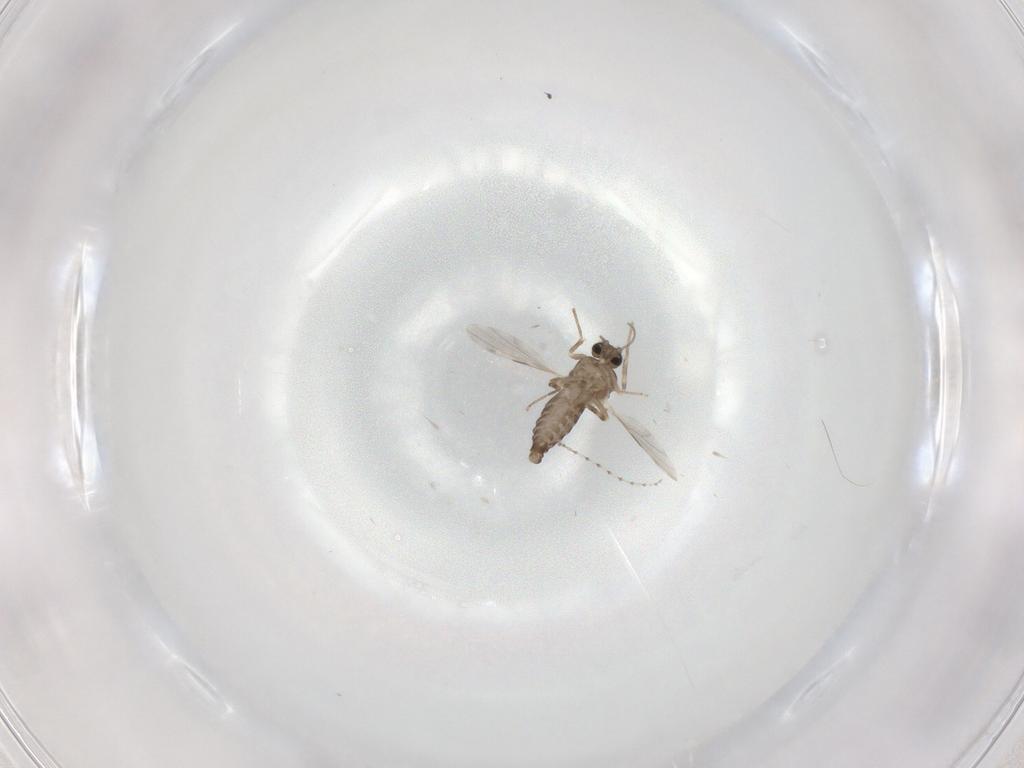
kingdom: Animalia
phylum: Arthropoda
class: Insecta
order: Diptera
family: Ceratopogonidae
